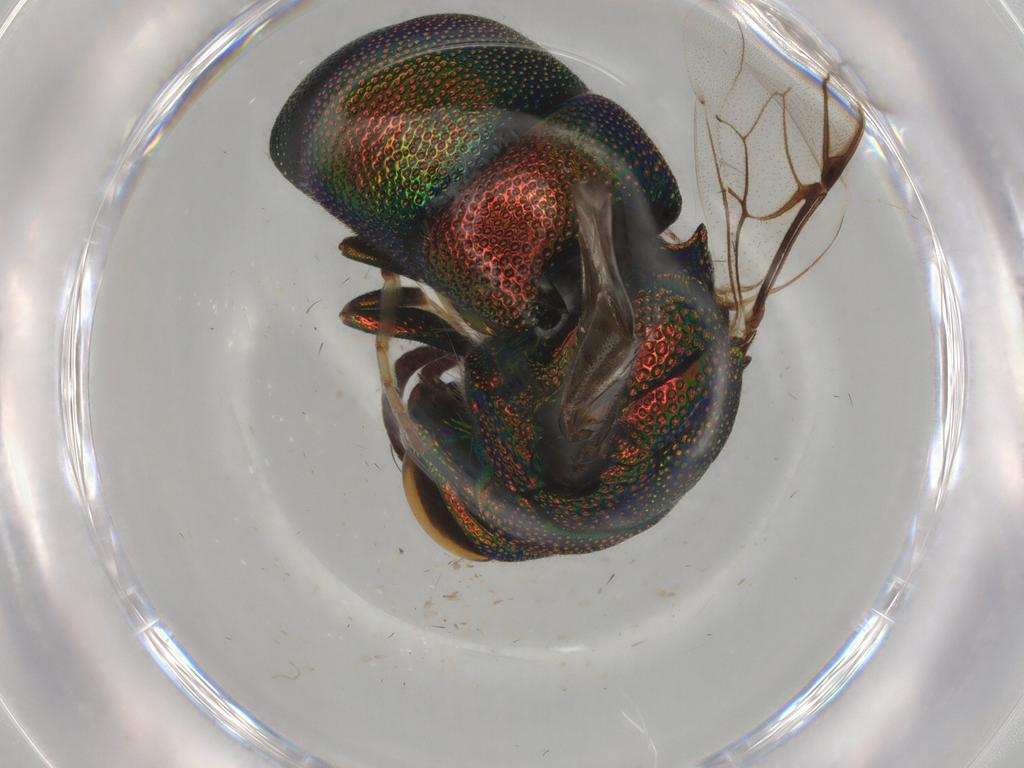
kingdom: Animalia
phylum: Arthropoda
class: Insecta
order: Hymenoptera
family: Chrysididae
